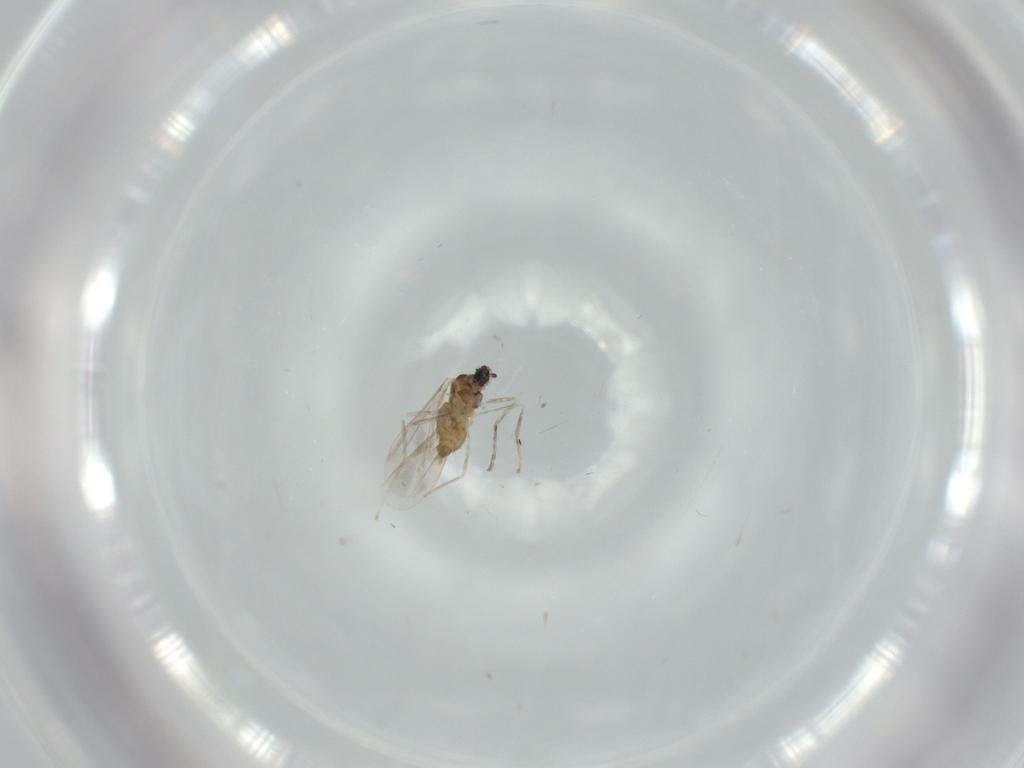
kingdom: Animalia
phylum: Arthropoda
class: Insecta
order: Diptera
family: Cecidomyiidae
